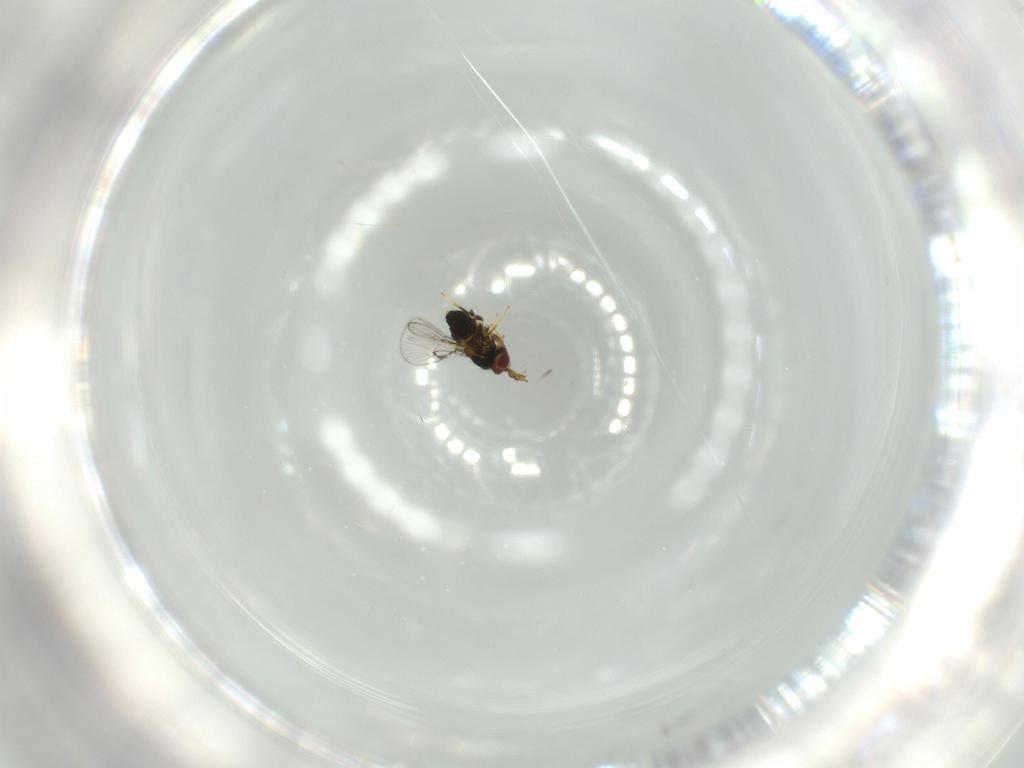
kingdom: Animalia
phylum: Arthropoda
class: Insecta
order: Hymenoptera
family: Trichogrammatidae
